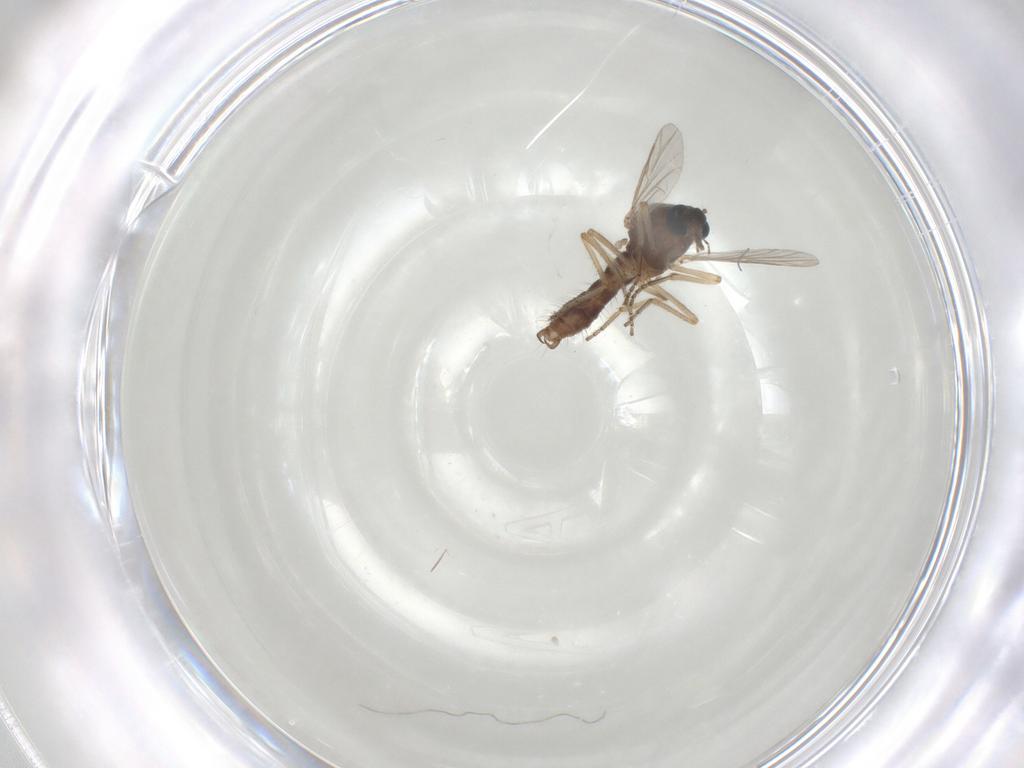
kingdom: Animalia
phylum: Arthropoda
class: Insecta
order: Diptera
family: Ceratopogonidae
